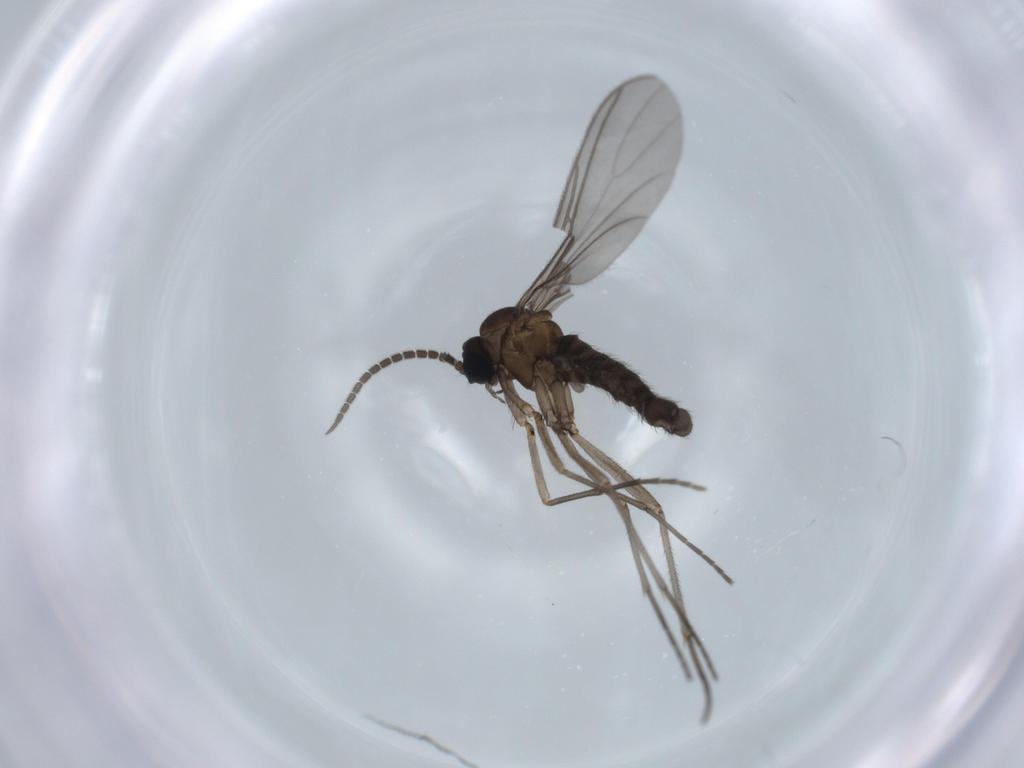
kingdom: Animalia
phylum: Arthropoda
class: Insecta
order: Diptera
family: Sciaridae
